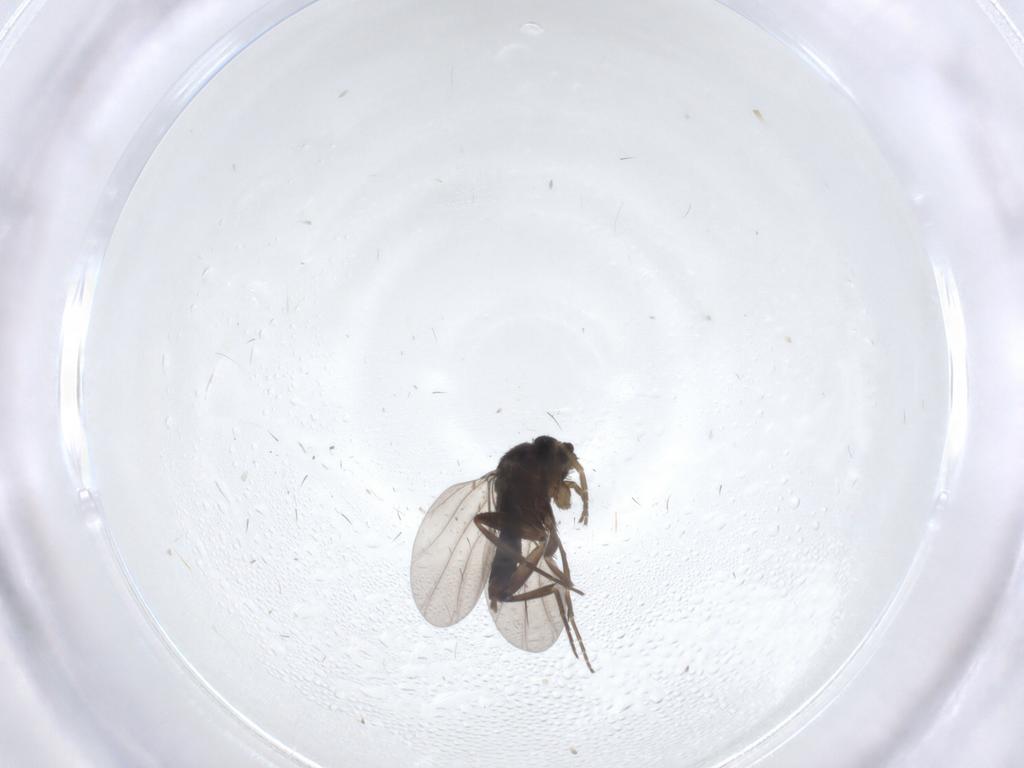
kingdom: Animalia
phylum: Arthropoda
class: Insecta
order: Diptera
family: Phoridae
